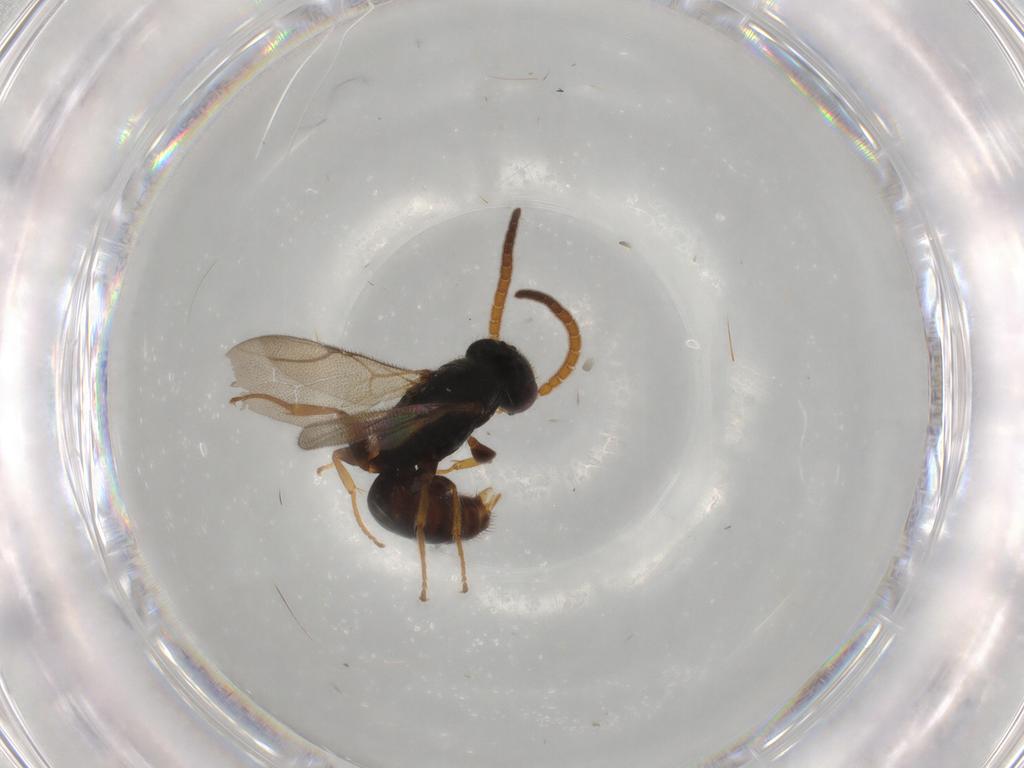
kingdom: Animalia
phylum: Arthropoda
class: Insecta
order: Hymenoptera
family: Bethylidae
